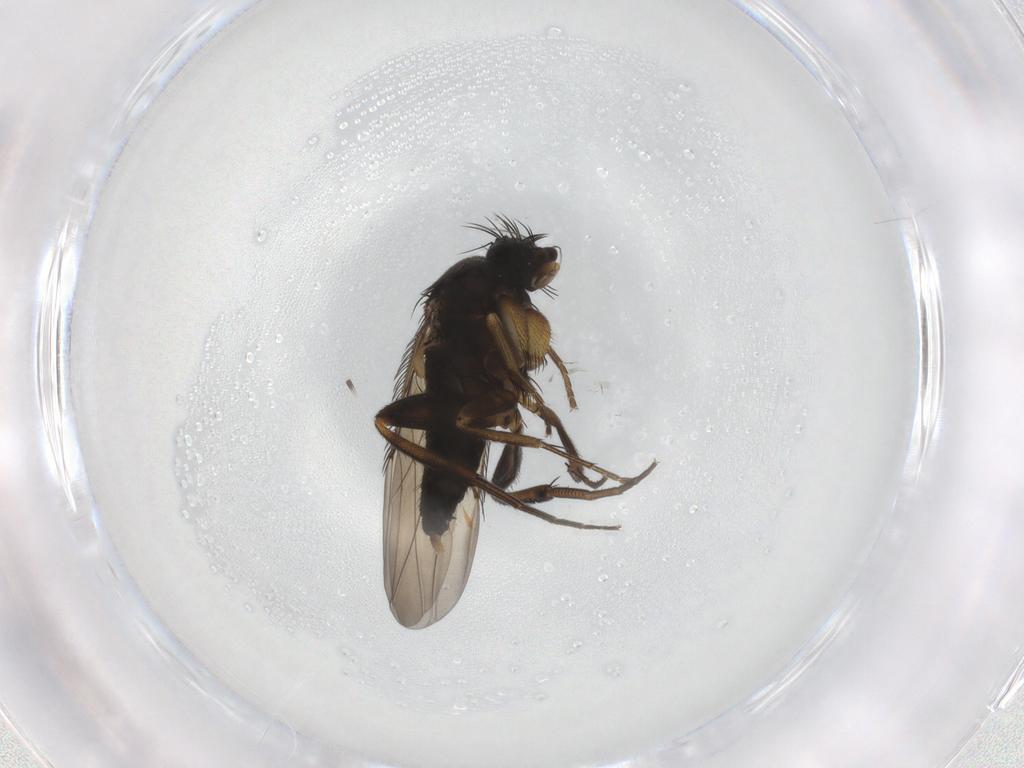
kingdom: Animalia
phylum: Arthropoda
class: Insecta
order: Diptera
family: Phoridae
